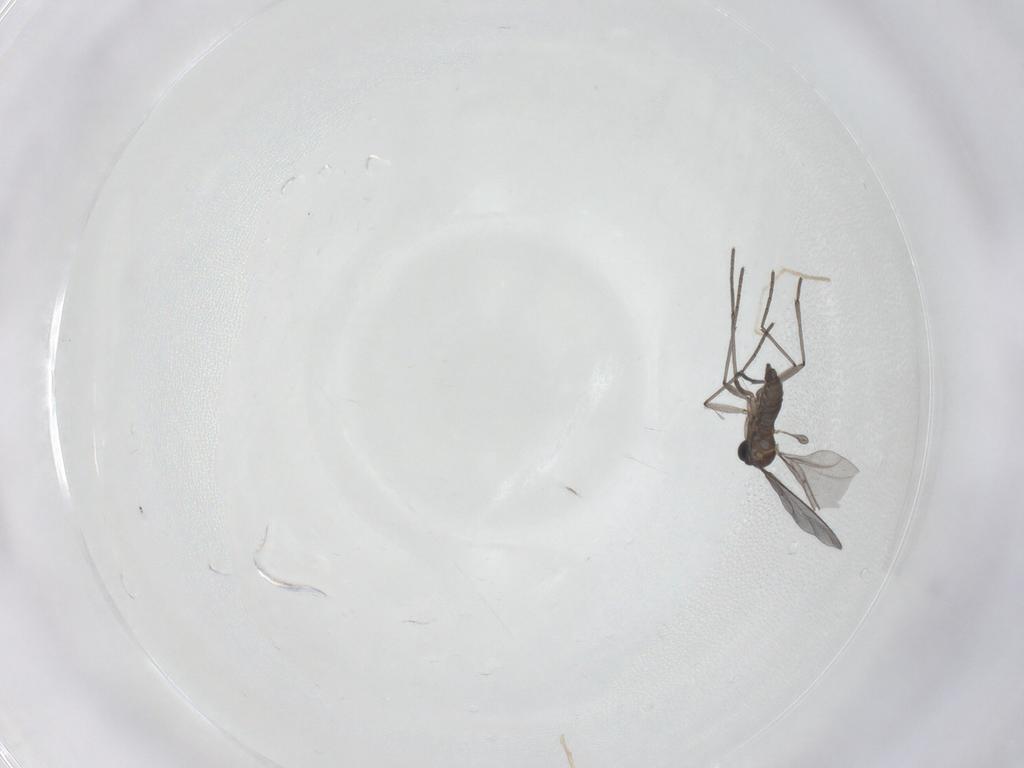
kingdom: Animalia
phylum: Arthropoda
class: Insecta
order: Diptera
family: Chironomidae
